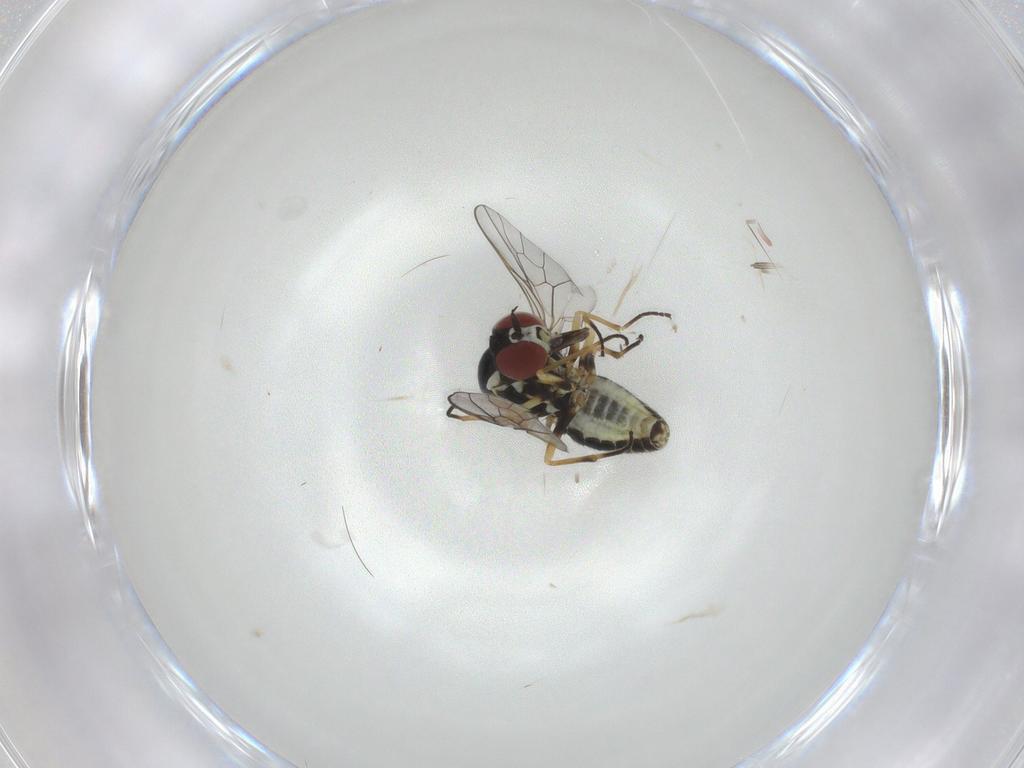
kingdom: Animalia
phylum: Arthropoda
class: Insecta
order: Diptera
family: Bombyliidae
